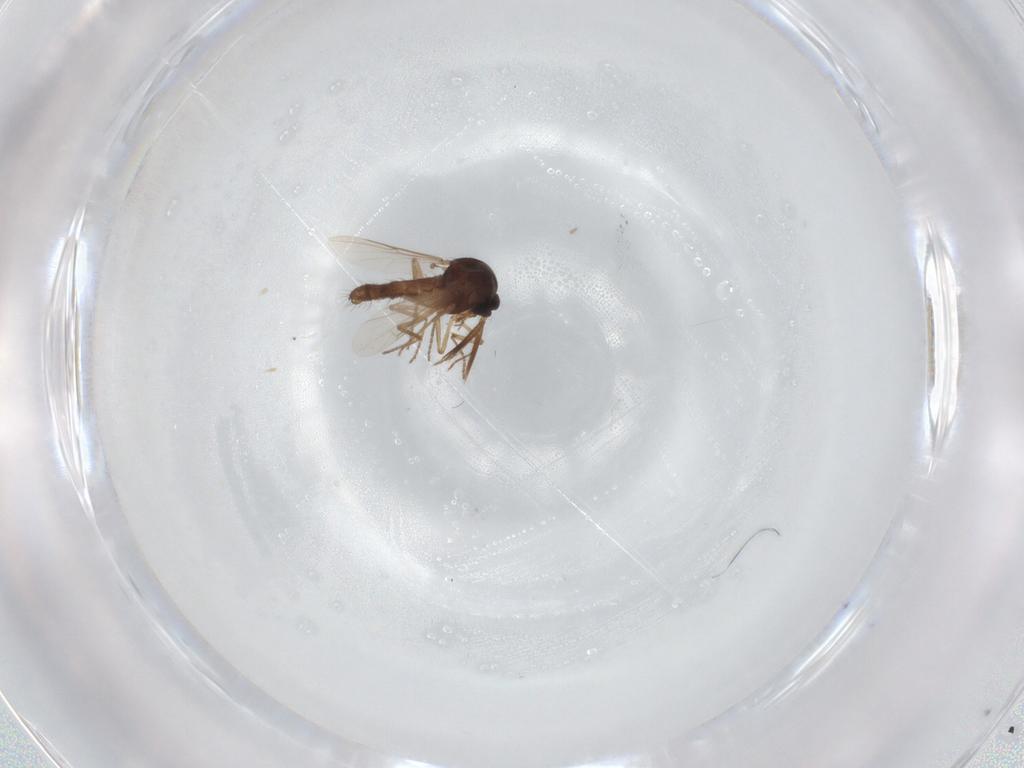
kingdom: Animalia
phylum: Arthropoda
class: Insecta
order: Diptera
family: Ceratopogonidae
